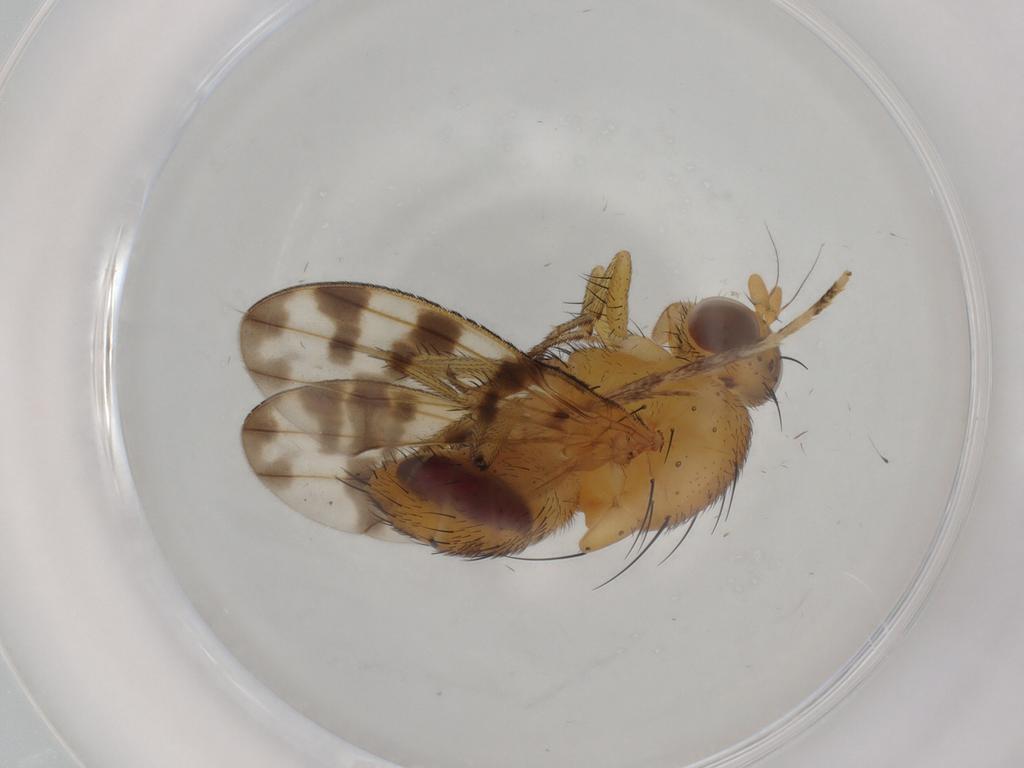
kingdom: Animalia
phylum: Arthropoda
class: Insecta
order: Diptera
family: Cecidomyiidae
